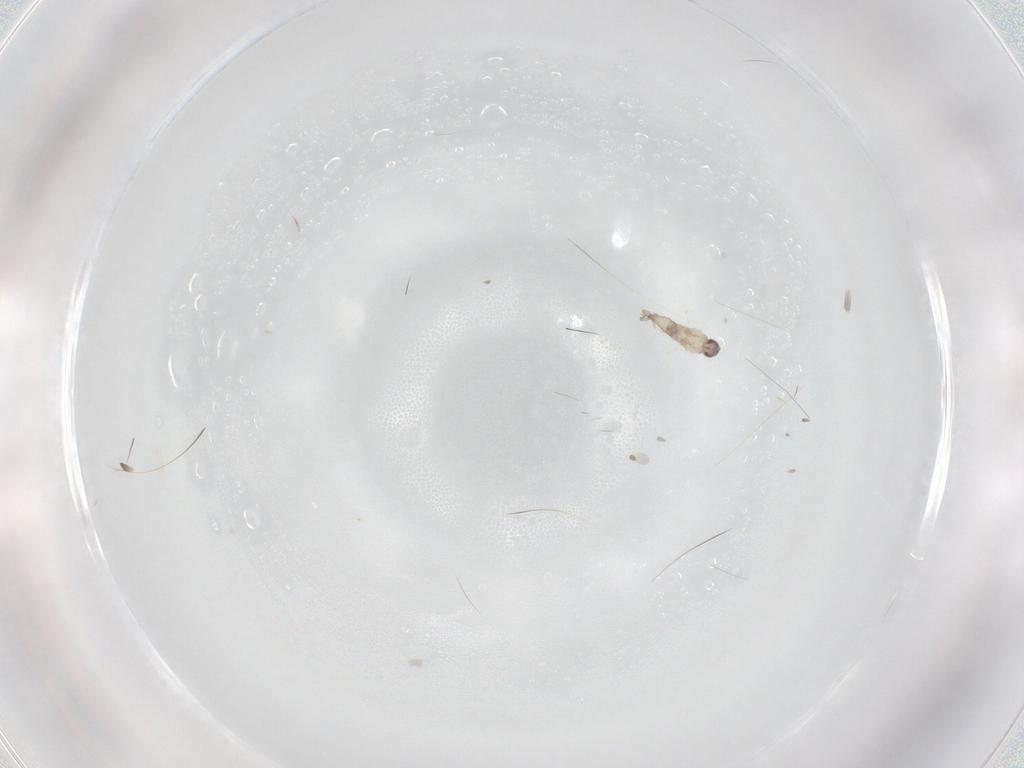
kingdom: Animalia
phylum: Arthropoda
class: Insecta
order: Diptera
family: Cecidomyiidae
